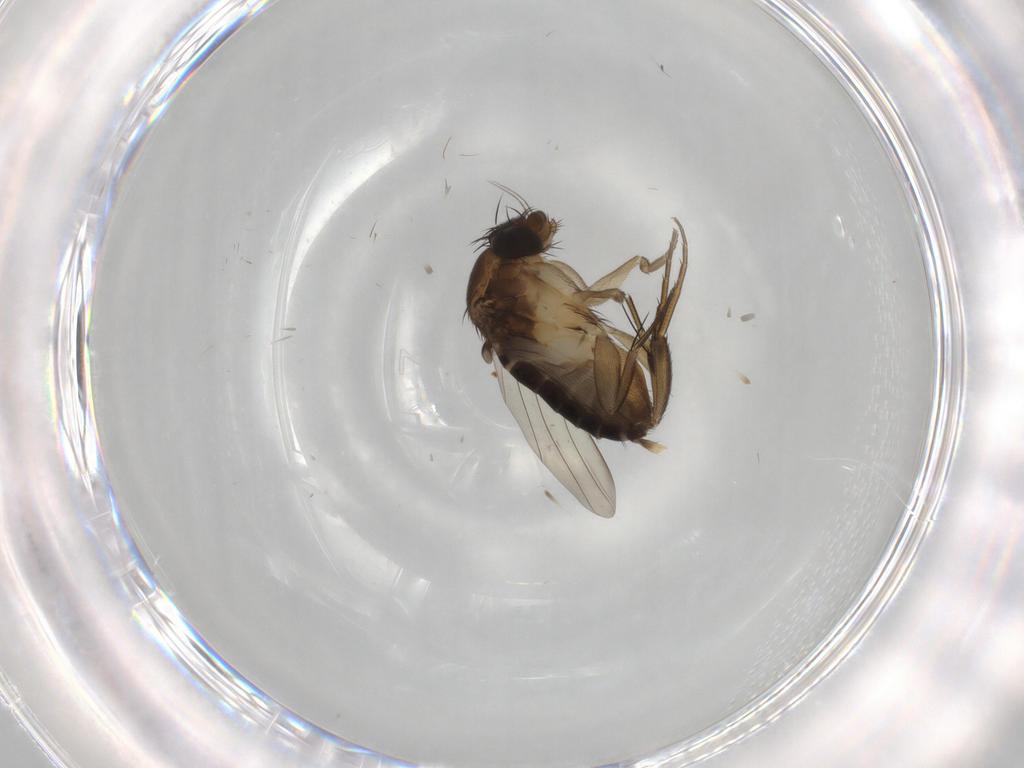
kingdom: Animalia
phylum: Arthropoda
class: Insecta
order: Diptera
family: Phoridae
